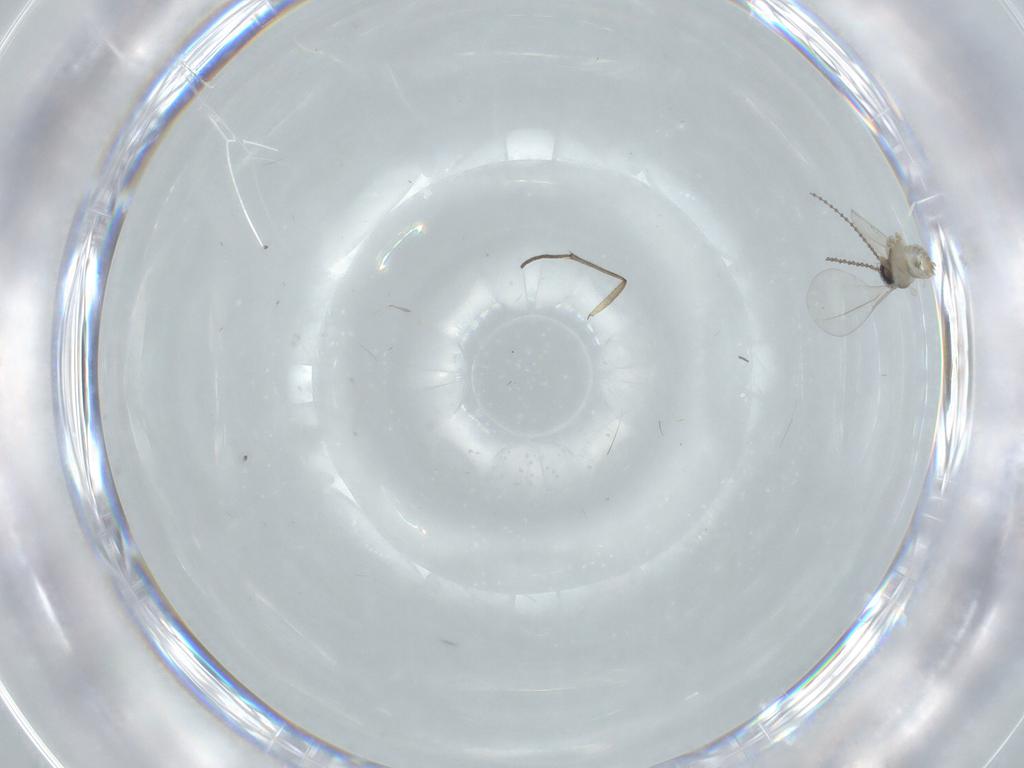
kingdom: Animalia
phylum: Arthropoda
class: Insecta
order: Diptera
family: Cecidomyiidae
